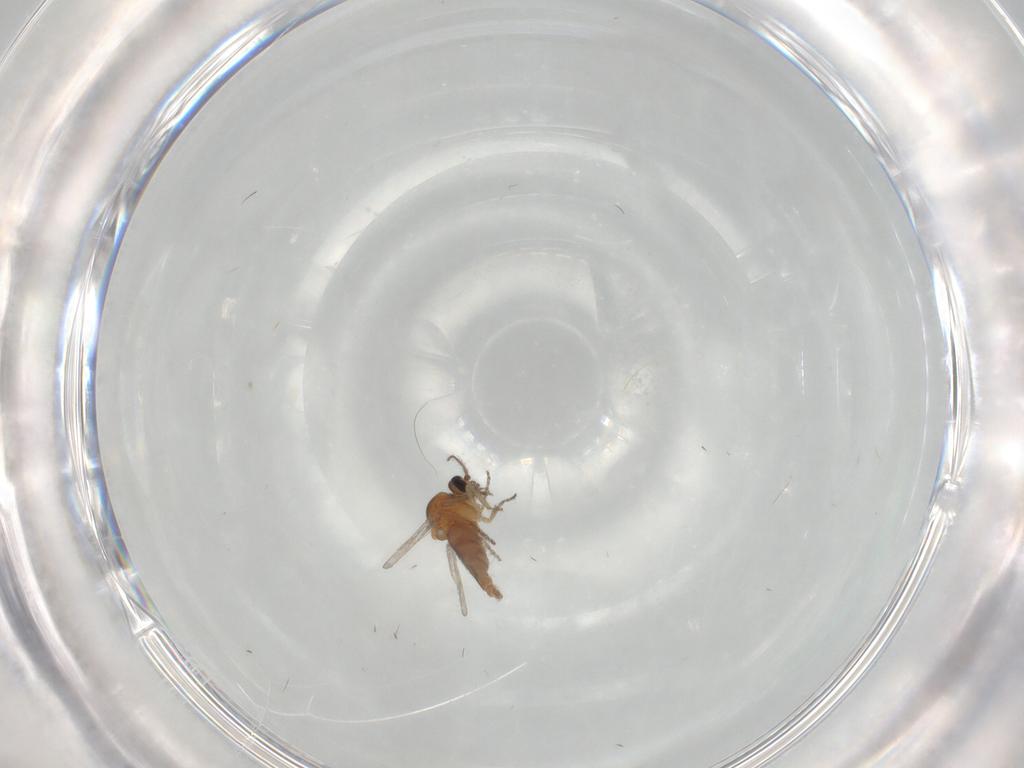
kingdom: Animalia
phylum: Arthropoda
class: Insecta
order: Diptera
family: Ceratopogonidae
